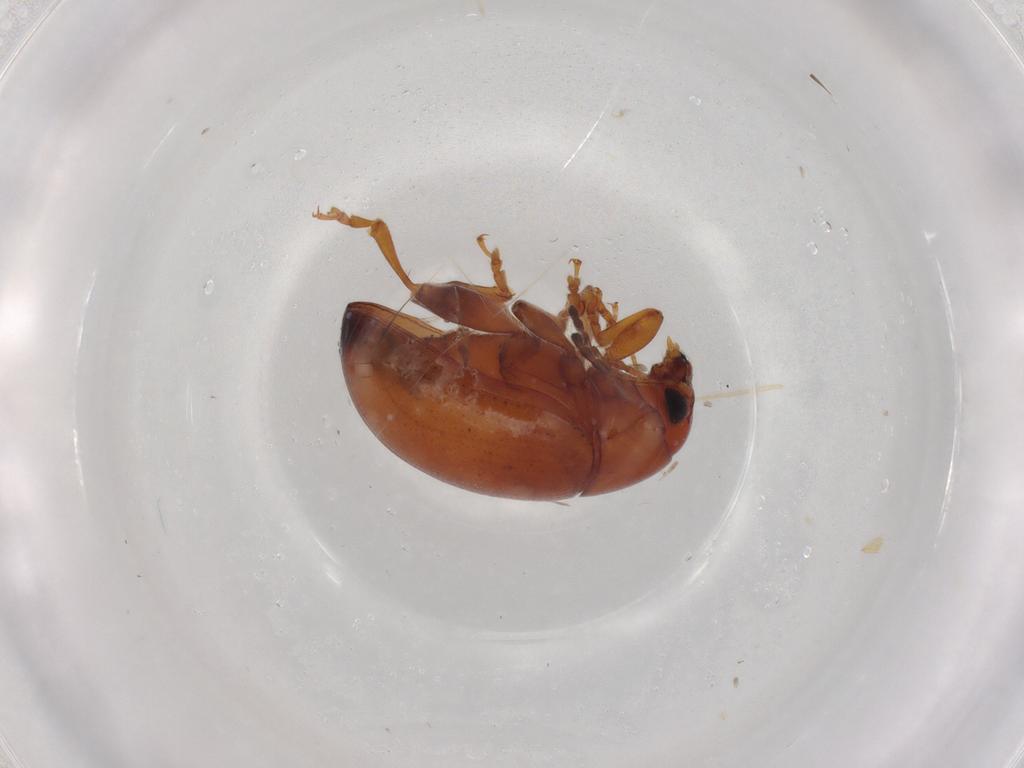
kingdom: Animalia
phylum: Arthropoda
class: Insecta
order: Coleoptera
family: Chrysomelidae
